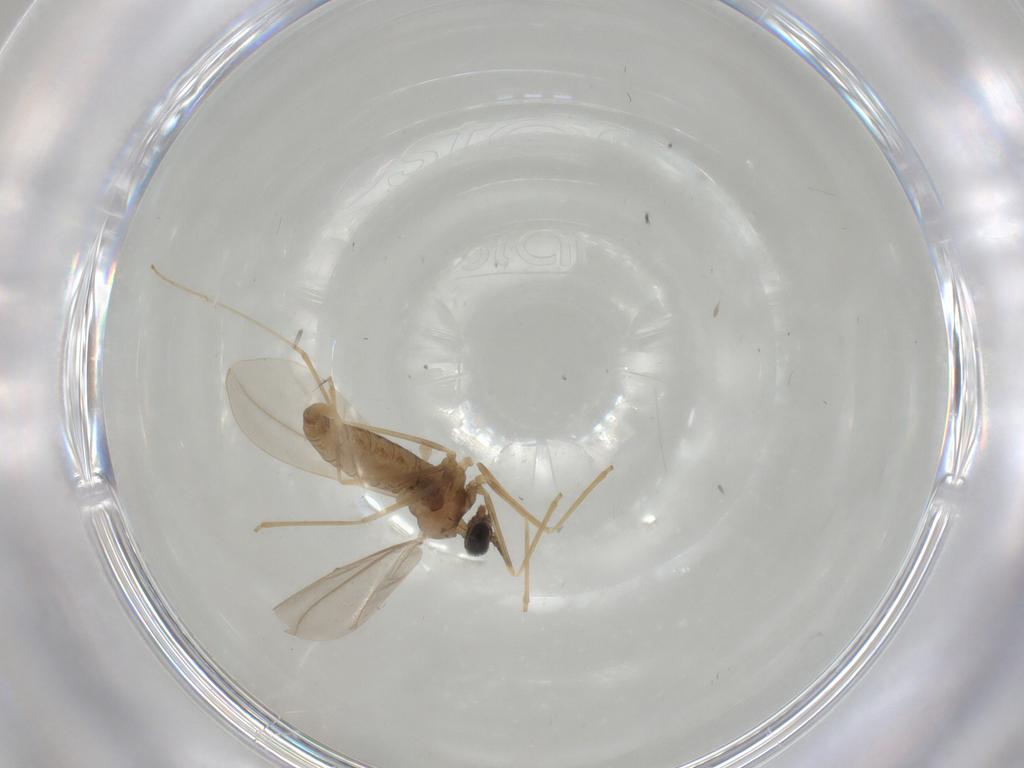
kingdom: Animalia
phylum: Arthropoda
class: Insecta
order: Diptera
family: Cecidomyiidae
